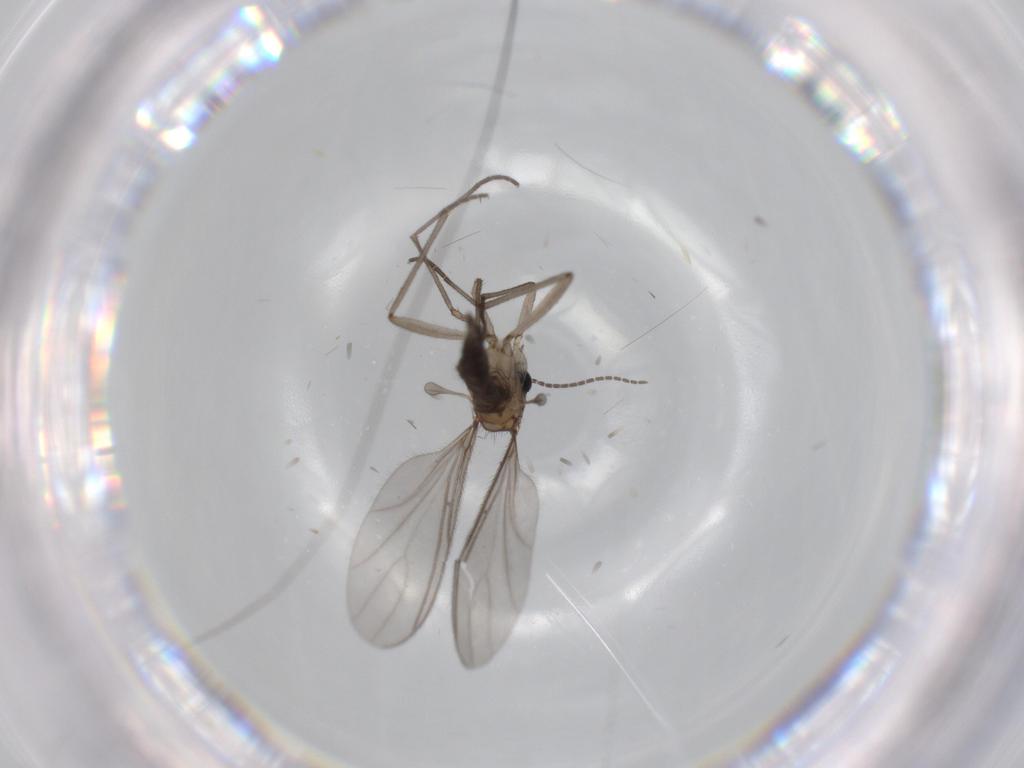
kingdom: Animalia
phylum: Arthropoda
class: Insecta
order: Diptera
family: Sciaridae
